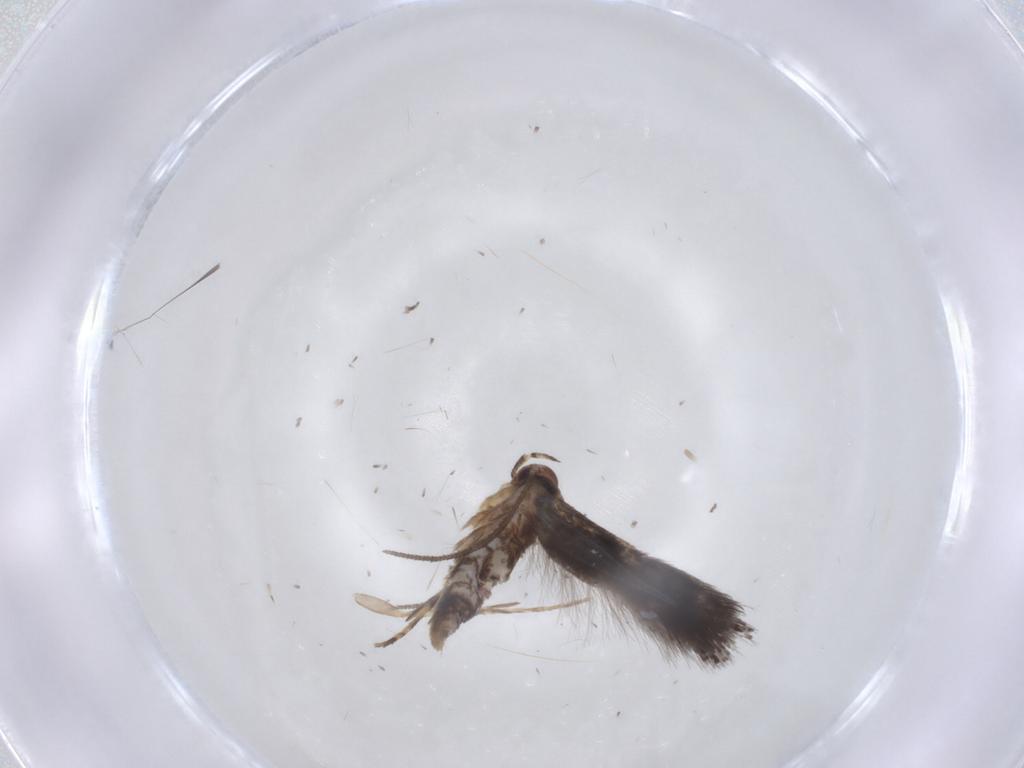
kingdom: Animalia
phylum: Arthropoda
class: Insecta
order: Lepidoptera
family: Elachistidae
